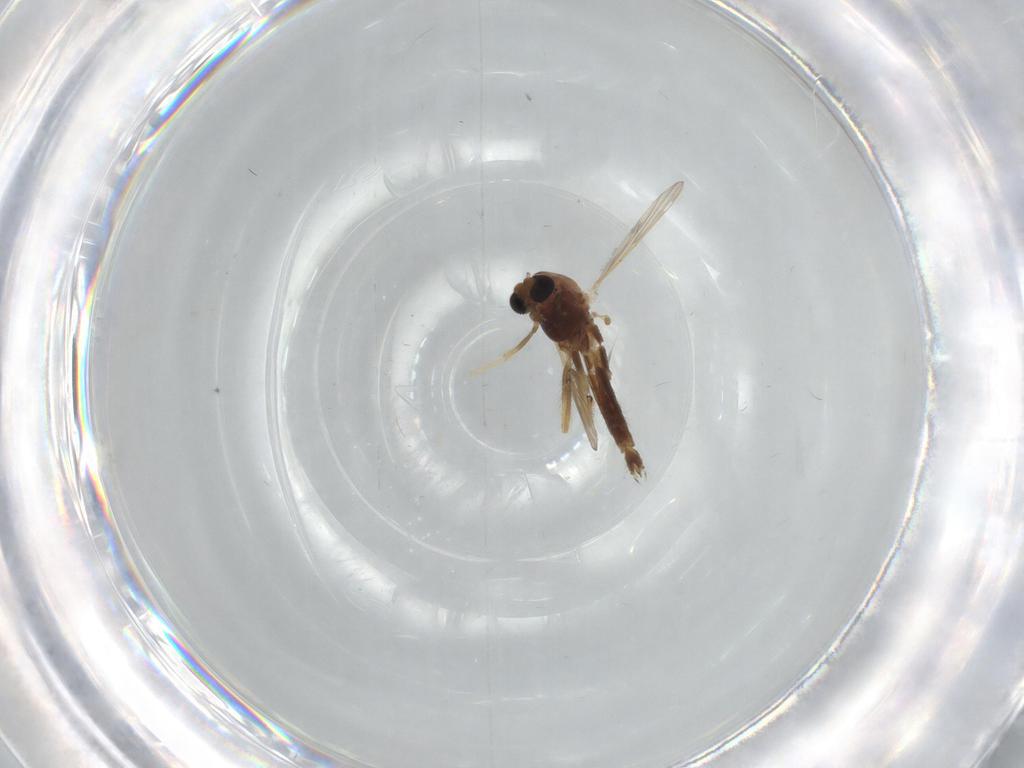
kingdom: Animalia
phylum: Arthropoda
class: Insecta
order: Diptera
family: Chironomidae
